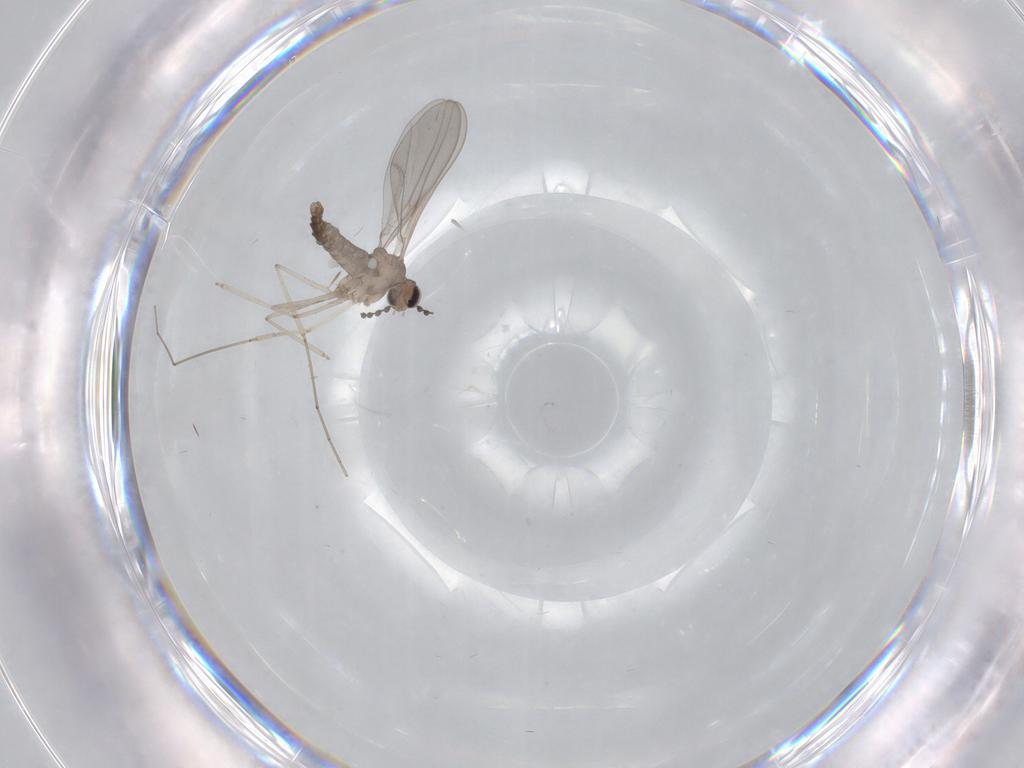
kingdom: Animalia
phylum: Arthropoda
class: Insecta
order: Diptera
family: Cecidomyiidae
